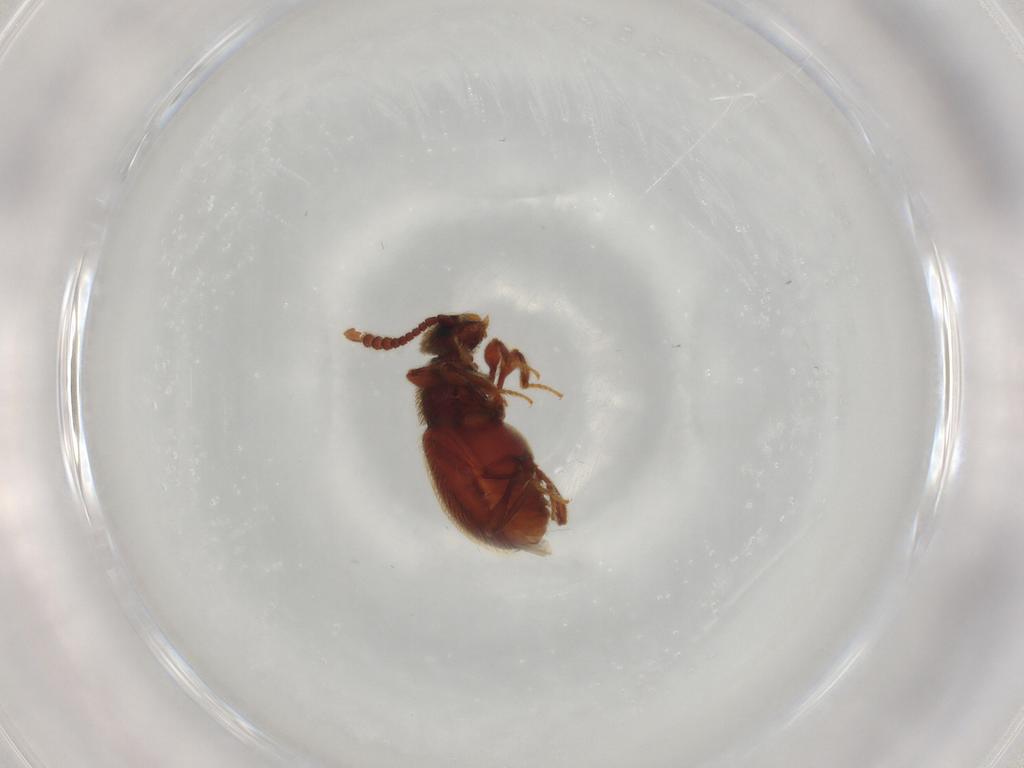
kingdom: Animalia
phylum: Arthropoda
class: Insecta
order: Coleoptera
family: Staphylinidae
